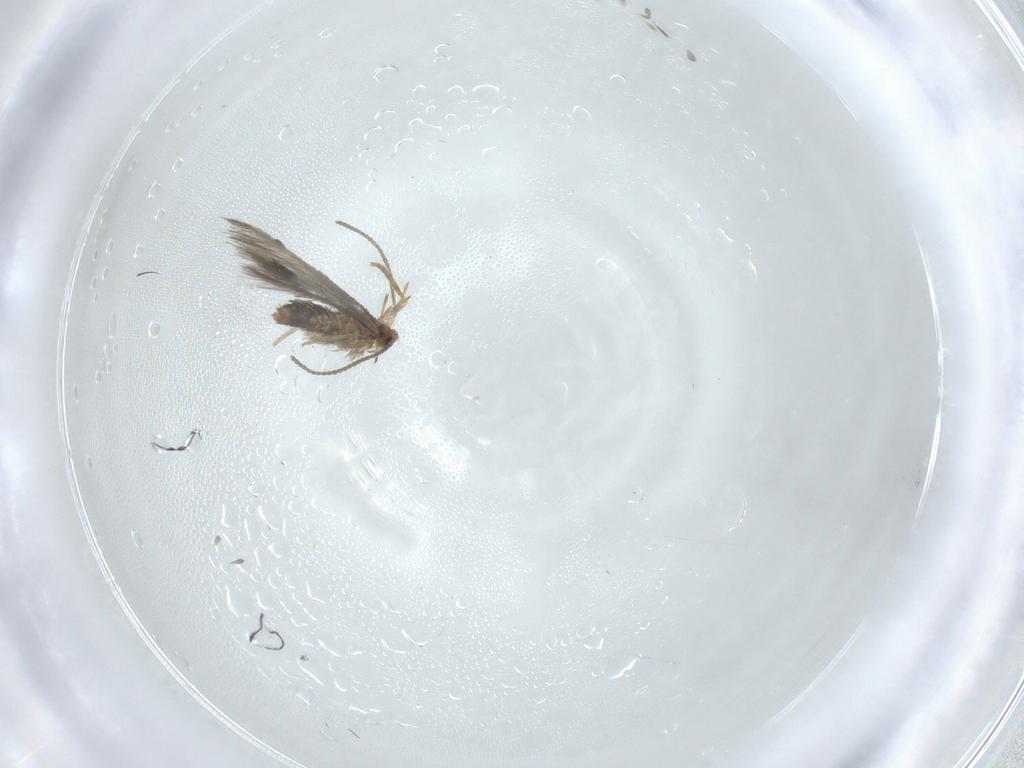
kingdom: Animalia
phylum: Arthropoda
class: Insecta
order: Lepidoptera
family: Nepticulidae
